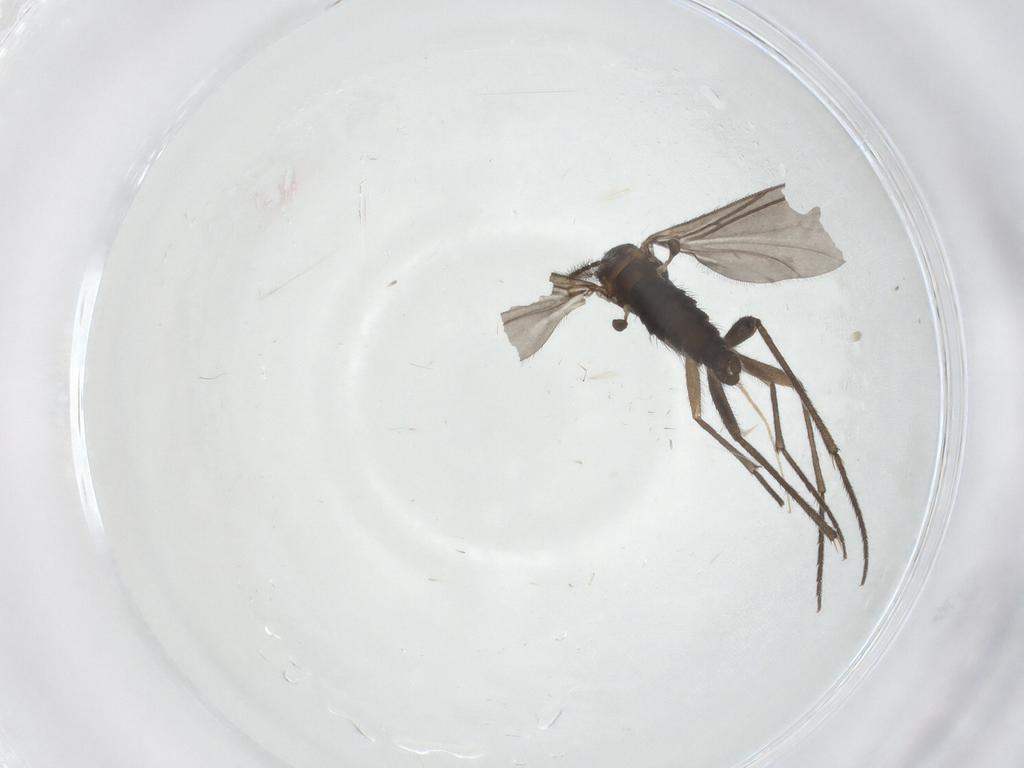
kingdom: Animalia
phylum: Arthropoda
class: Insecta
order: Diptera
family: Chironomidae
